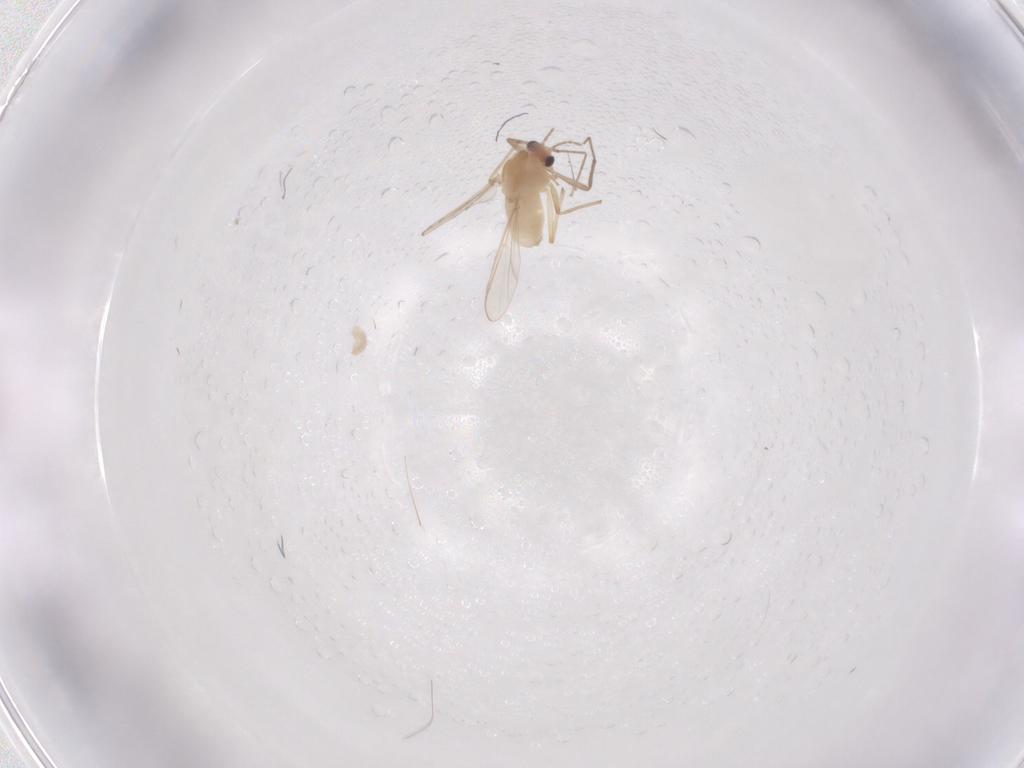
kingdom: Animalia
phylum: Arthropoda
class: Insecta
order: Diptera
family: Chironomidae
